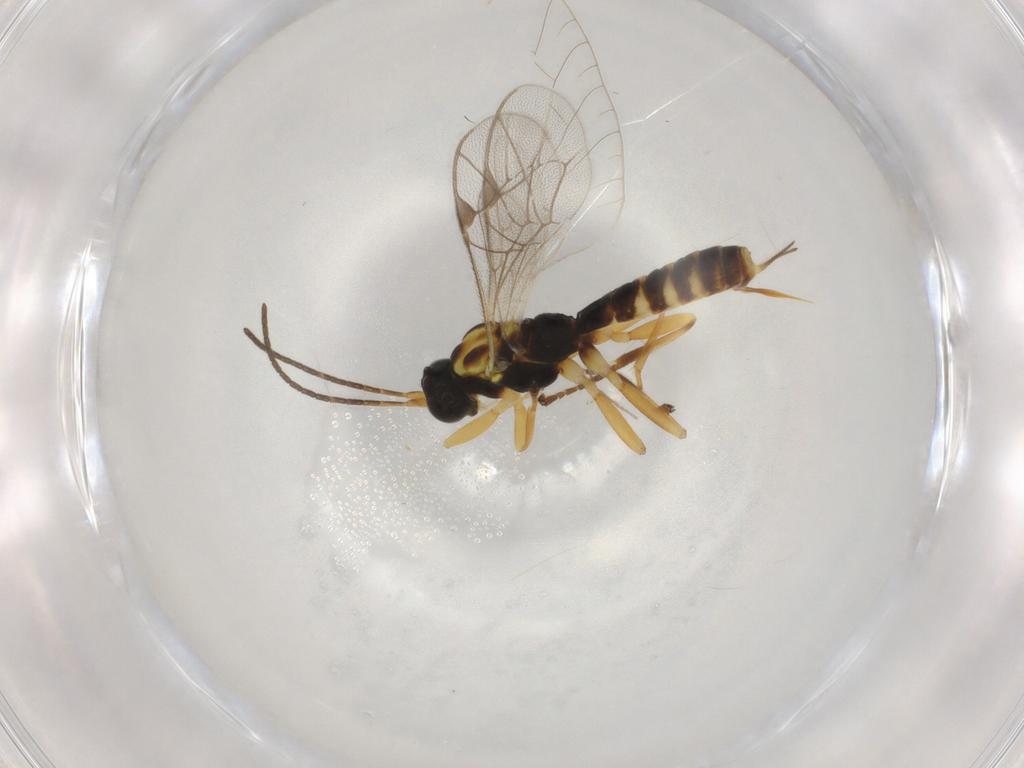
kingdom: Animalia
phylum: Arthropoda
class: Insecta
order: Hymenoptera
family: Ichneumonidae
